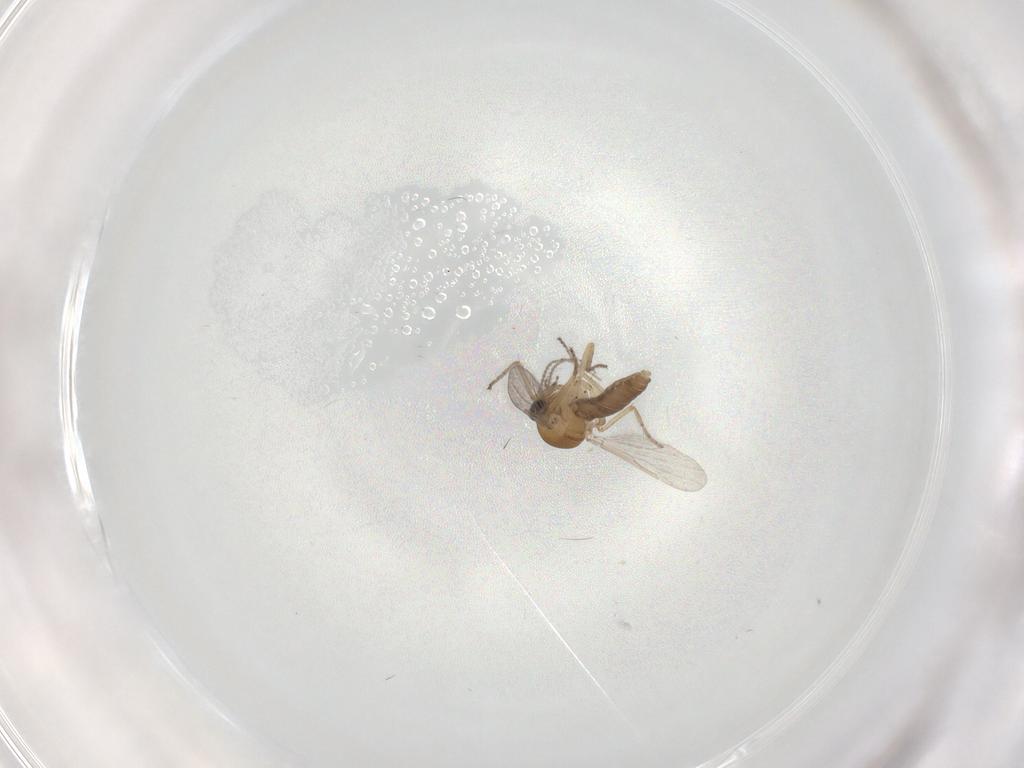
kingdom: Animalia
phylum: Arthropoda
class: Insecta
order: Diptera
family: Ceratopogonidae
